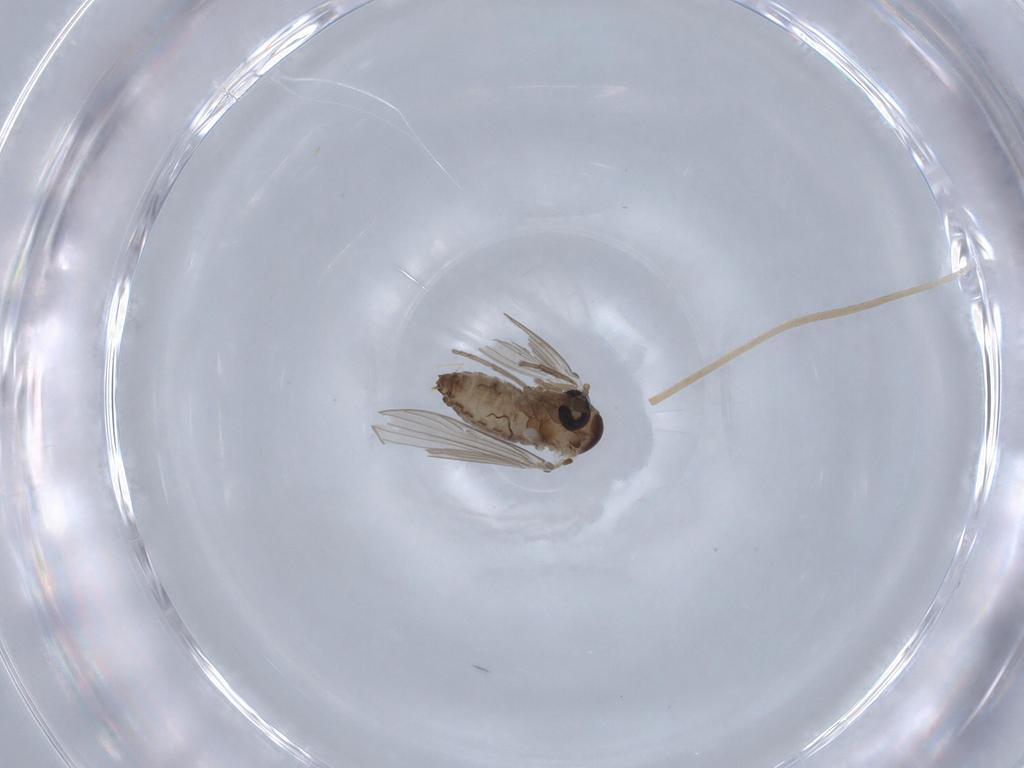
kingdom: Animalia
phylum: Arthropoda
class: Insecta
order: Diptera
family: Psychodidae
